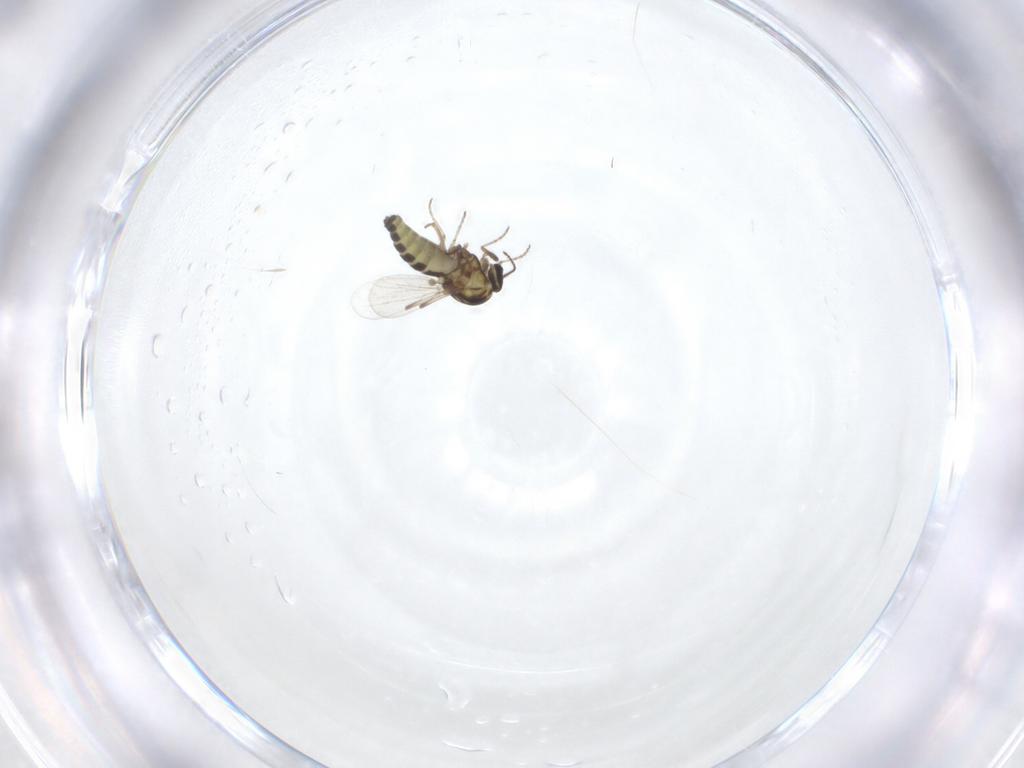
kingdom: Animalia
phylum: Arthropoda
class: Insecta
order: Diptera
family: Ceratopogonidae
